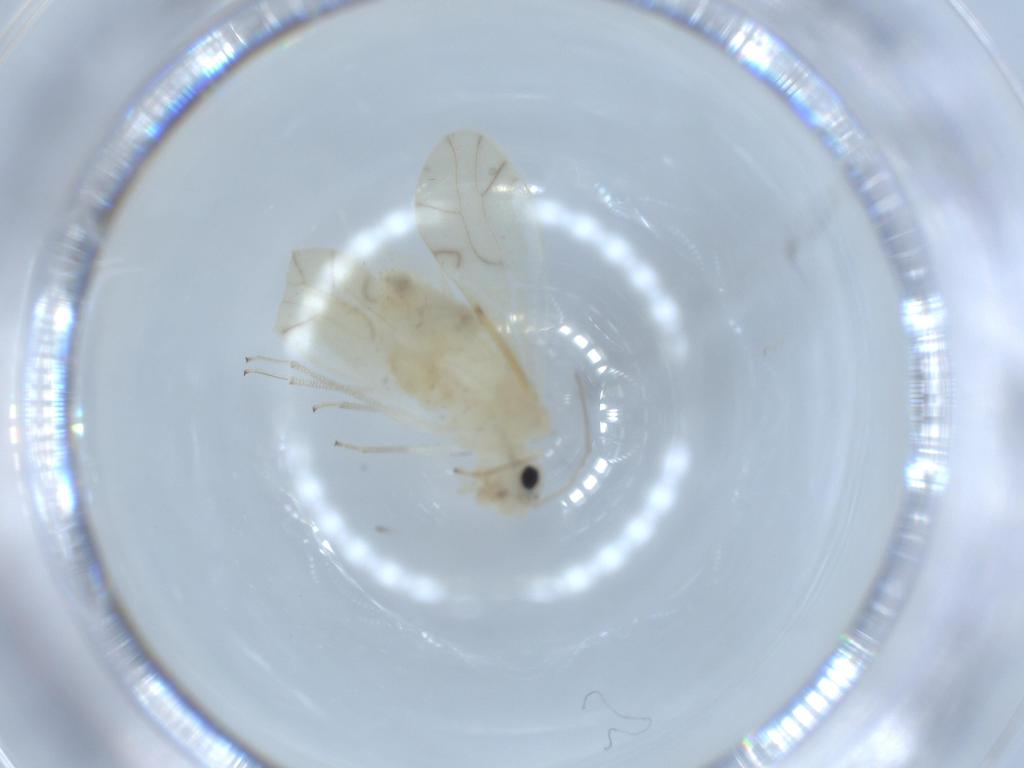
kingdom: Animalia
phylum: Arthropoda
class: Insecta
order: Psocodea
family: Caeciliusidae
